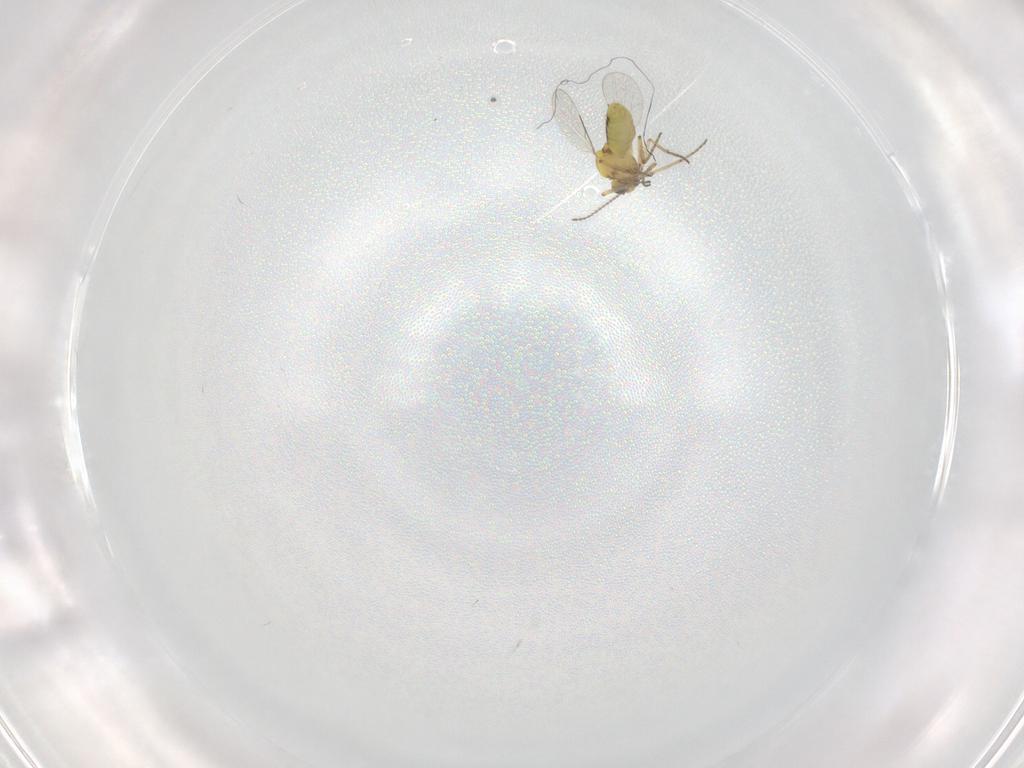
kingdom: Animalia
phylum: Arthropoda
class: Insecta
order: Diptera
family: Ceratopogonidae
